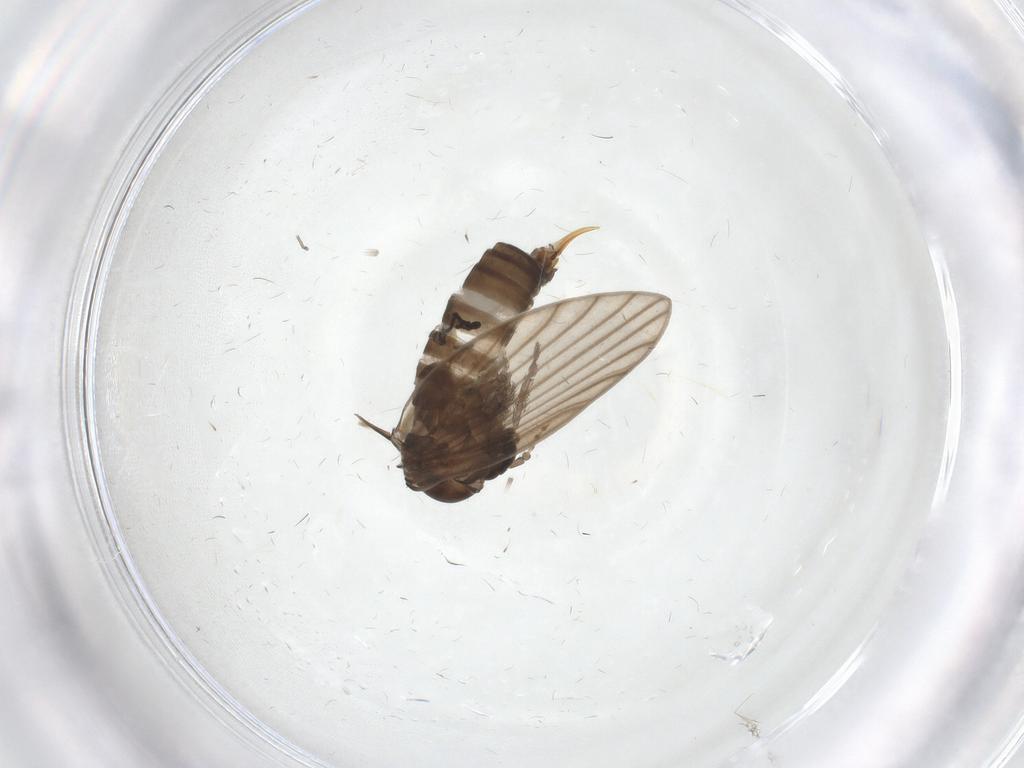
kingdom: Animalia
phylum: Arthropoda
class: Insecta
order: Diptera
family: Psychodidae
